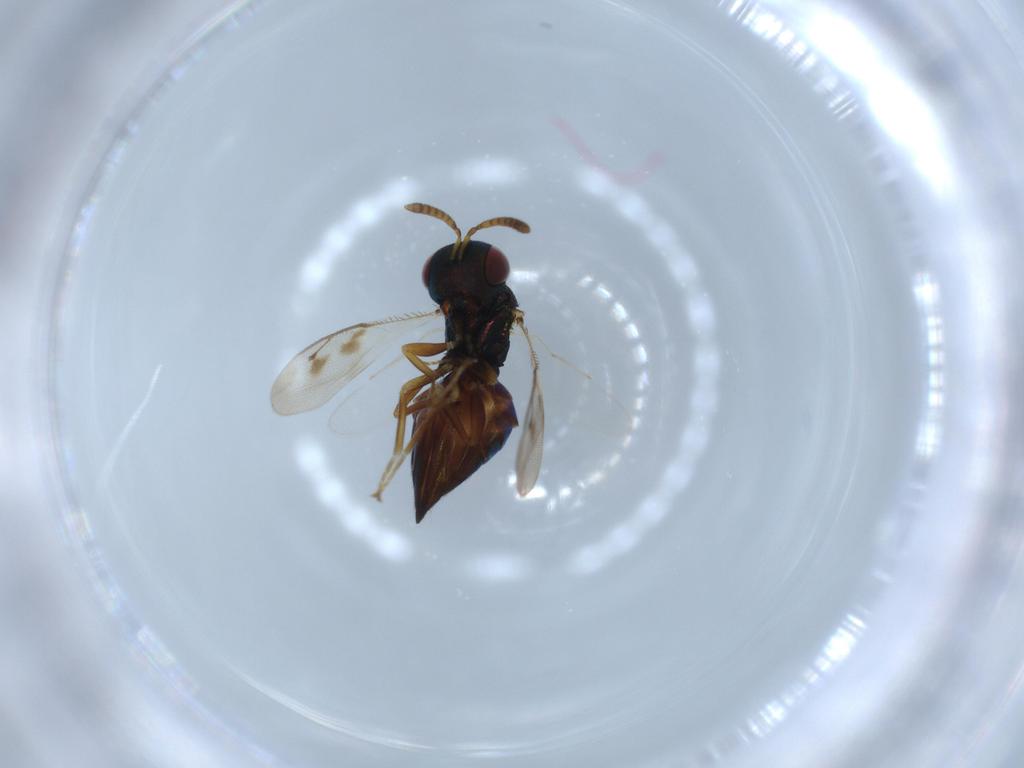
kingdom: Animalia
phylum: Arthropoda
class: Insecta
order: Hymenoptera
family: Pteromalidae
